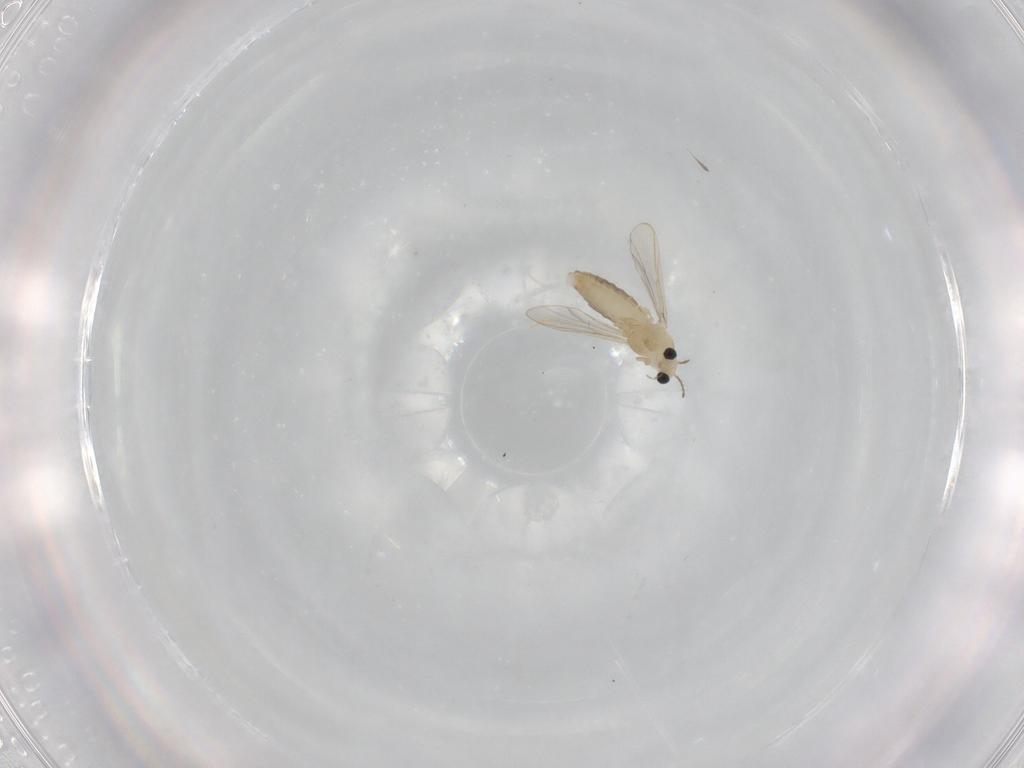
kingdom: Animalia
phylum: Arthropoda
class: Insecta
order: Diptera
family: Chironomidae
